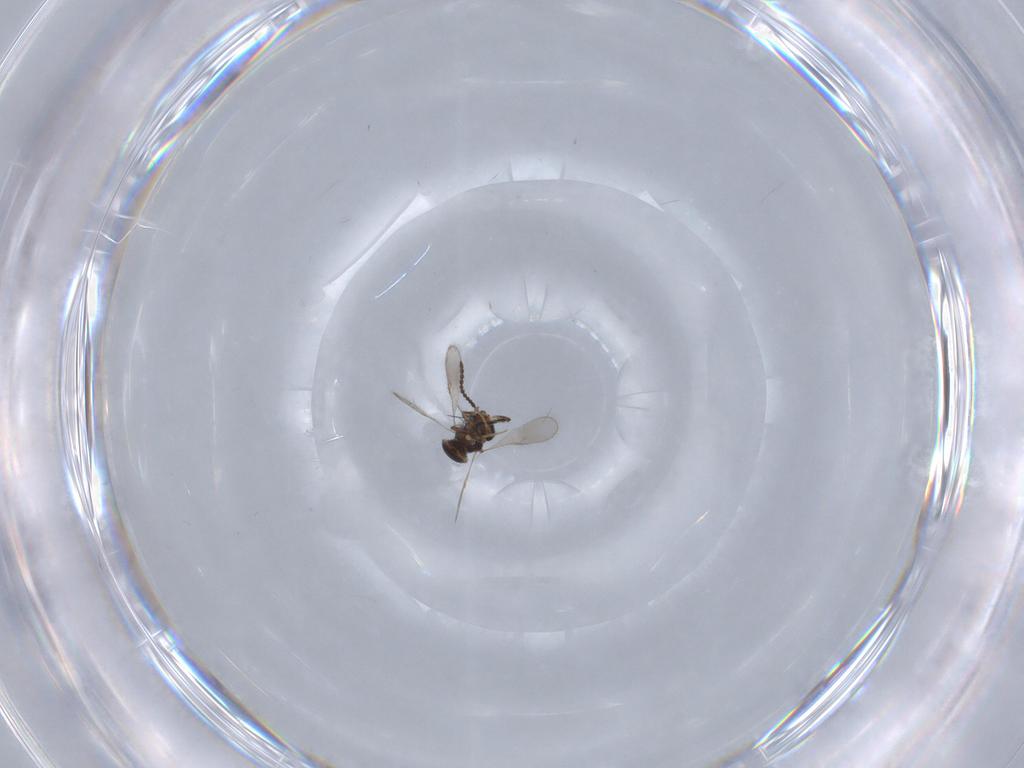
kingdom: Animalia
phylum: Arthropoda
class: Insecta
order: Hymenoptera
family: Scelionidae
